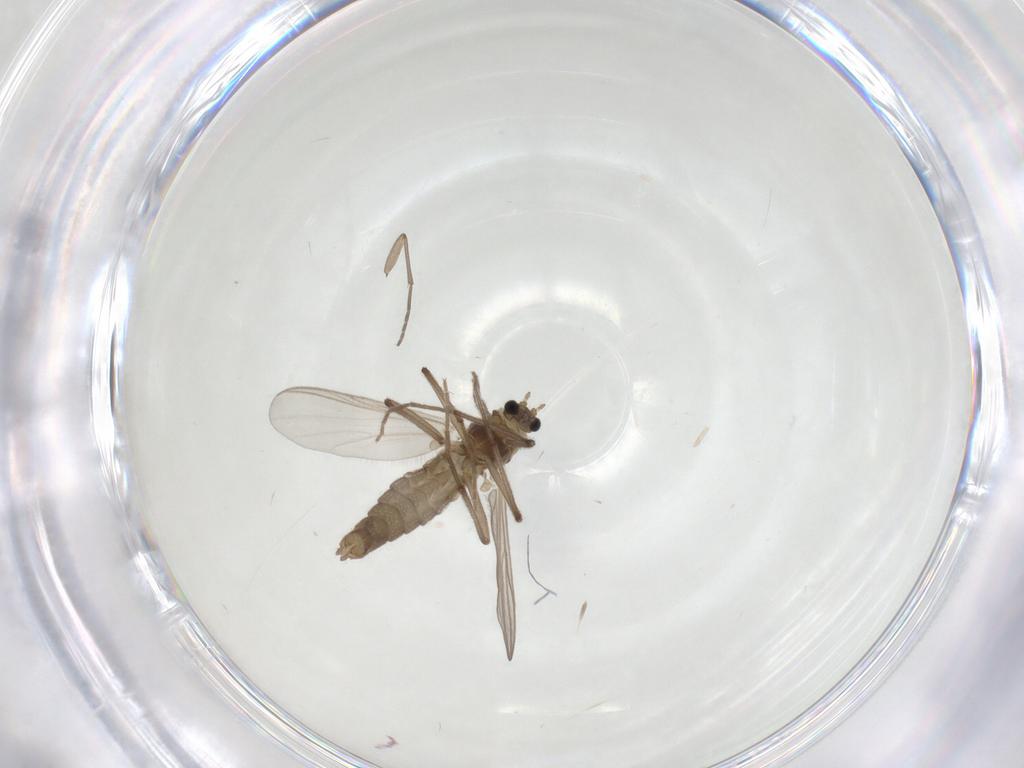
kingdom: Animalia
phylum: Arthropoda
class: Insecta
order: Diptera
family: Sciaridae
